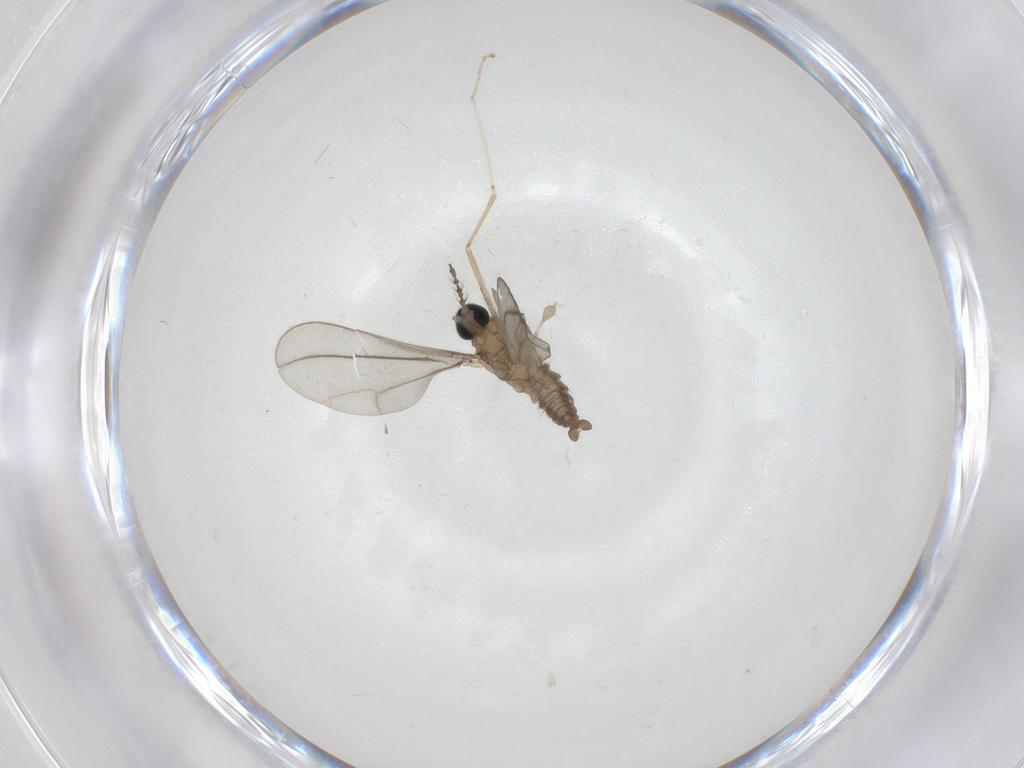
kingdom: Animalia
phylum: Arthropoda
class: Insecta
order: Diptera
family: Cecidomyiidae
